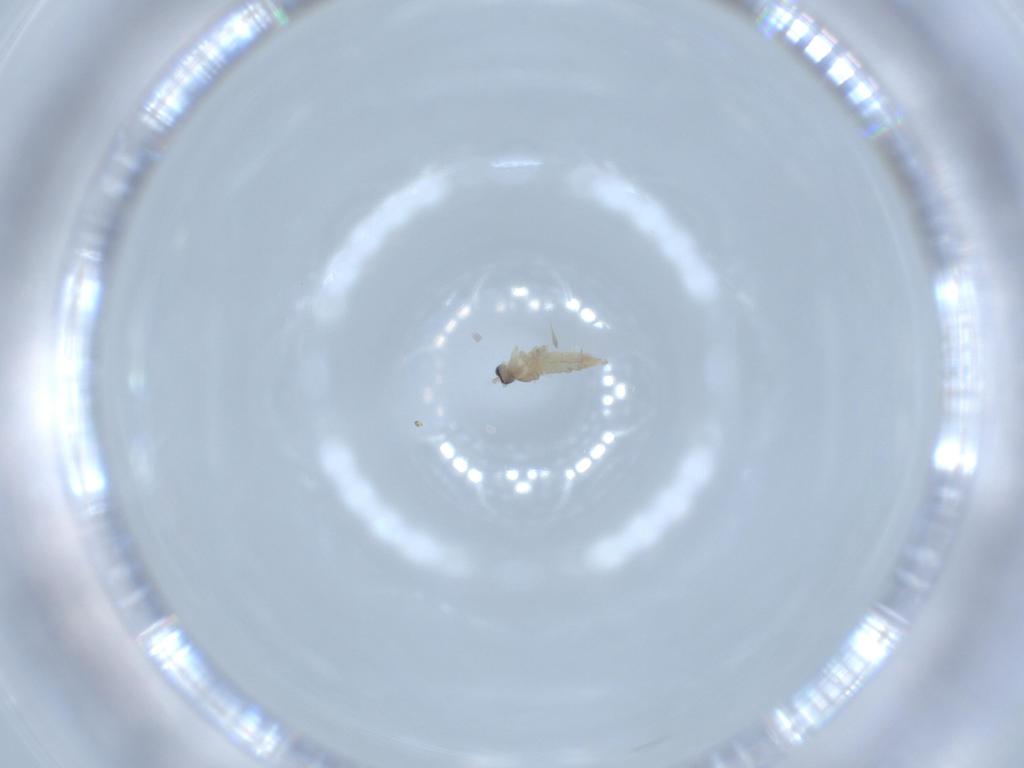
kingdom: Animalia
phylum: Arthropoda
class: Insecta
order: Diptera
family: Cecidomyiidae
